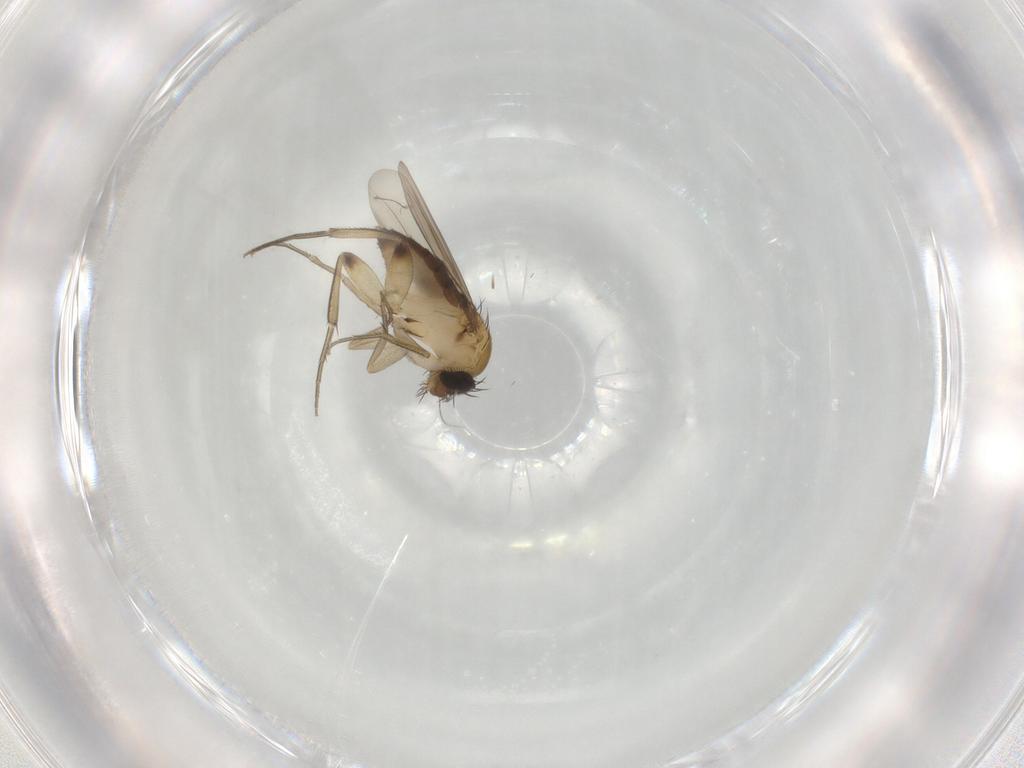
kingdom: Animalia
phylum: Arthropoda
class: Insecta
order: Diptera
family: Phoridae
